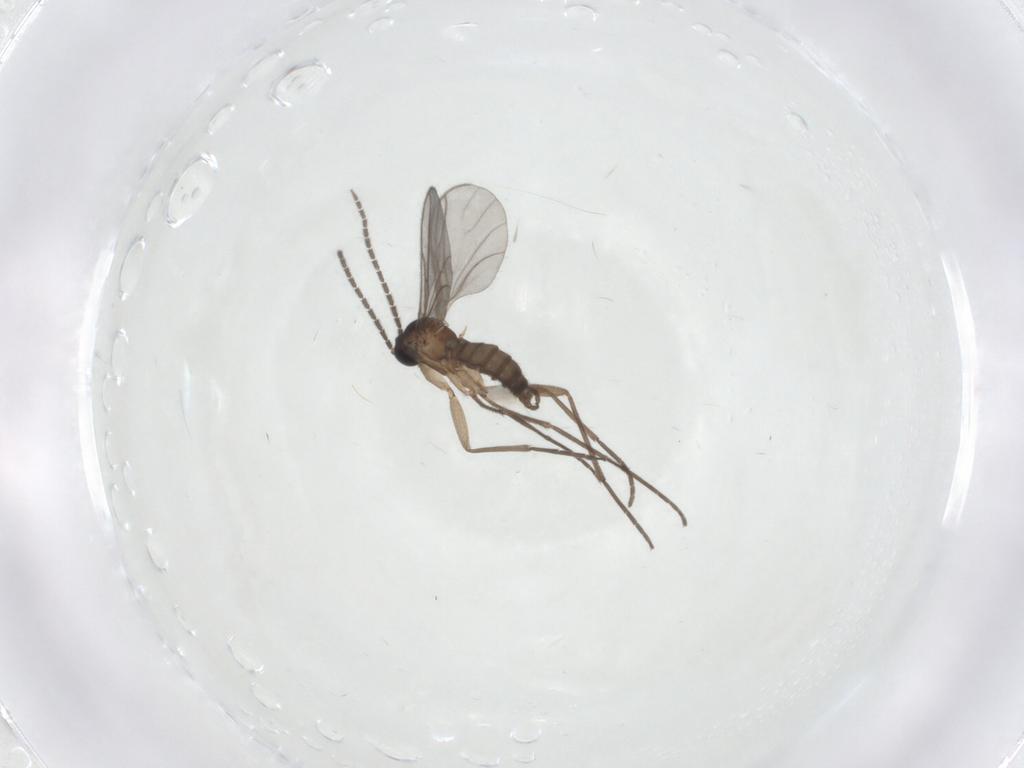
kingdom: Animalia
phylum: Arthropoda
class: Insecta
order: Diptera
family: Sciaridae
